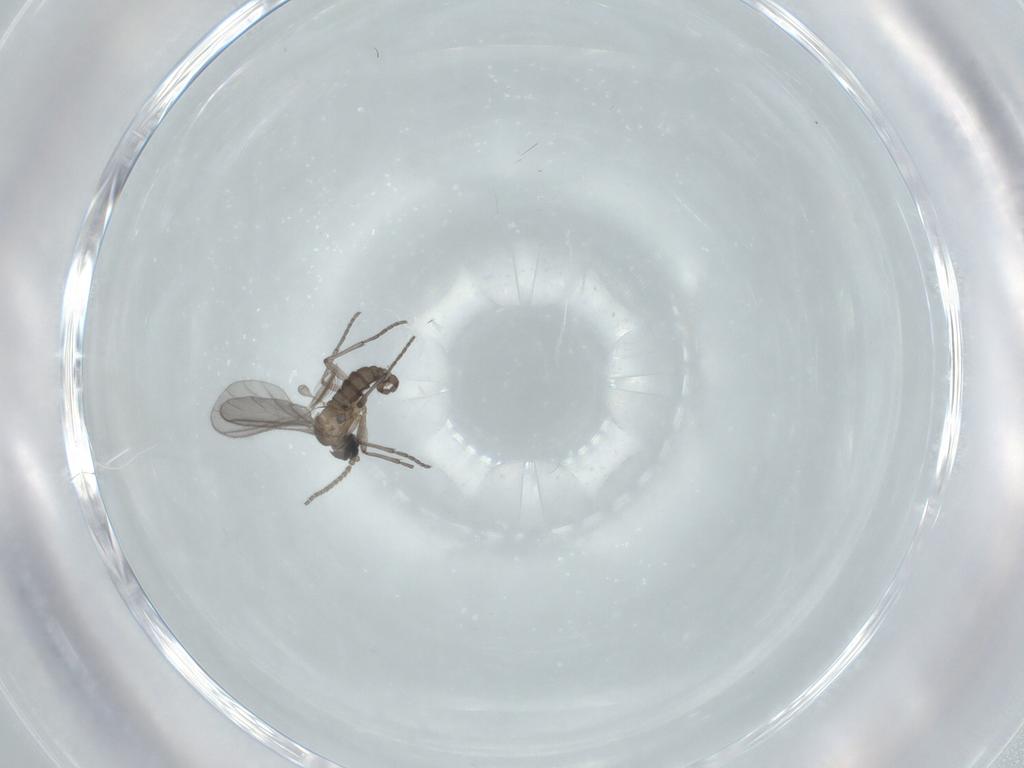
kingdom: Animalia
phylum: Arthropoda
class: Insecta
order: Diptera
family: Sciaridae
